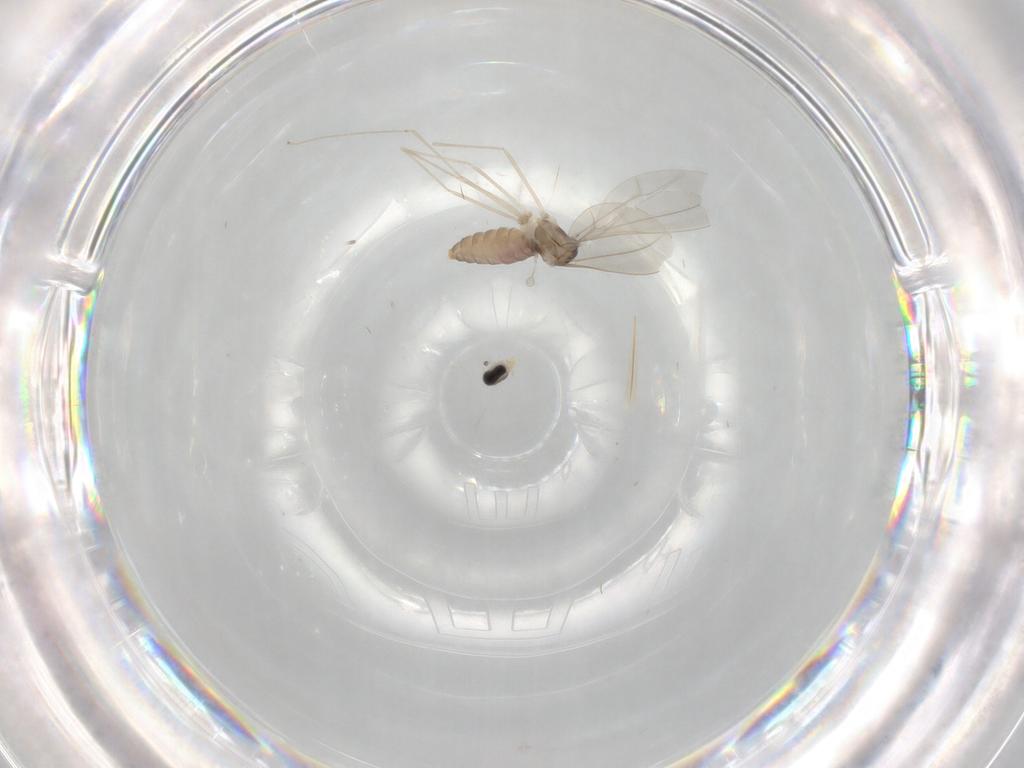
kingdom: Animalia
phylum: Arthropoda
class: Insecta
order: Diptera
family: Cecidomyiidae
